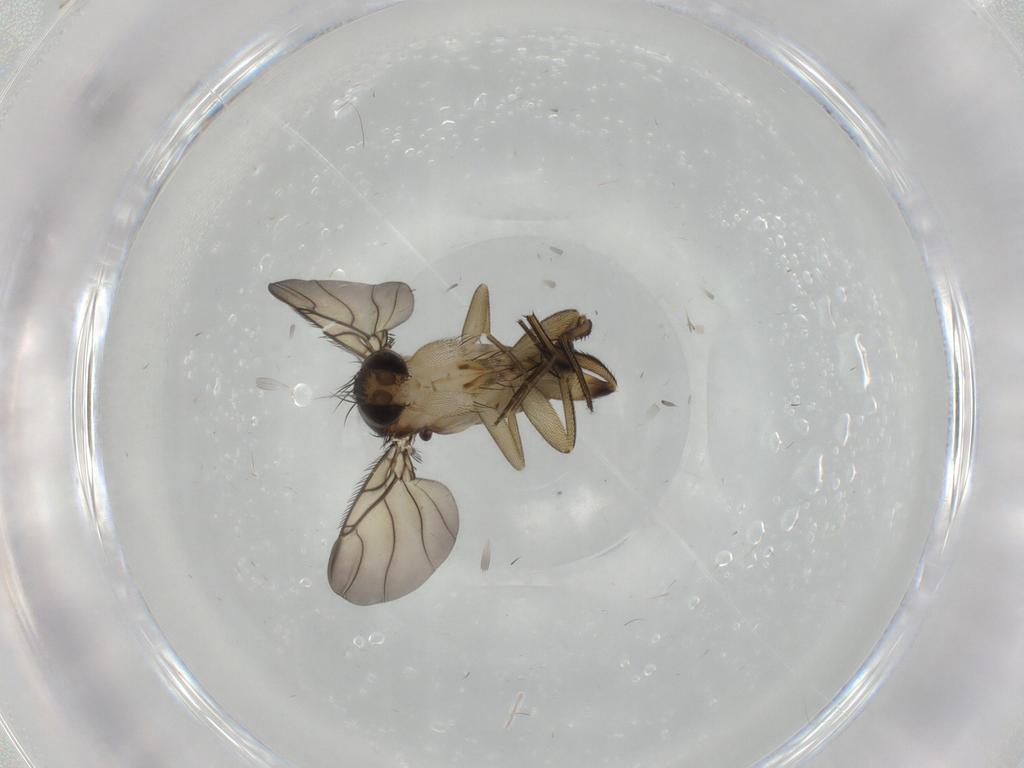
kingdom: Animalia
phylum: Arthropoda
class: Insecta
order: Diptera
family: Phoridae
